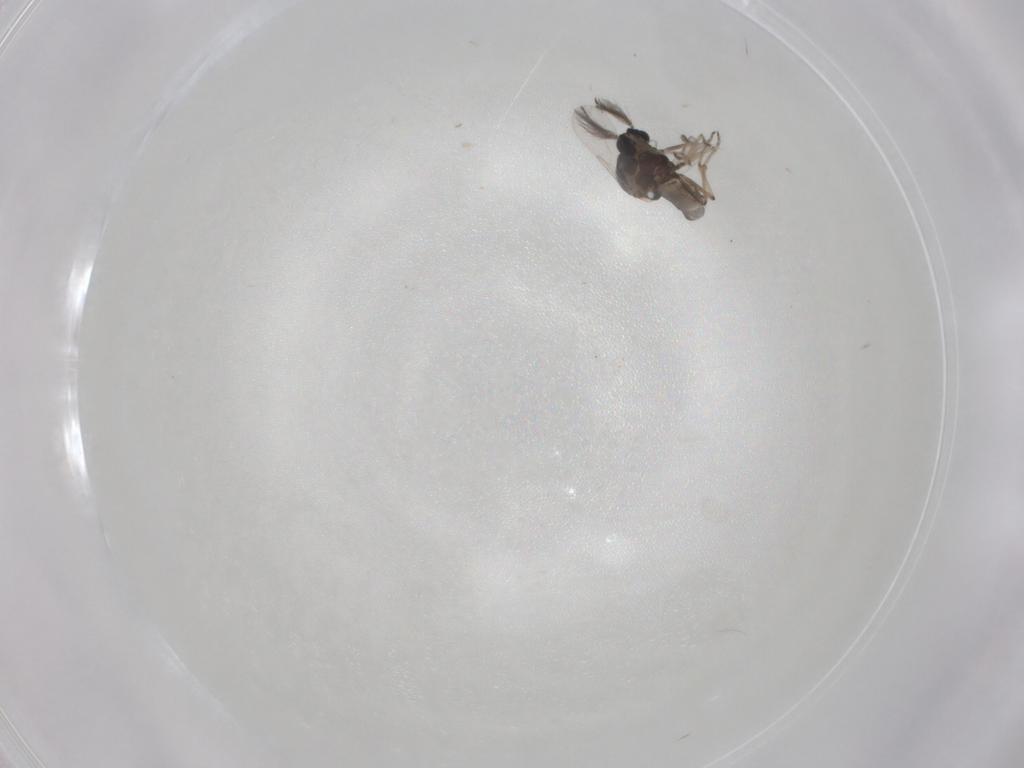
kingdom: Animalia
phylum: Arthropoda
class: Insecta
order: Diptera
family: Ceratopogonidae
